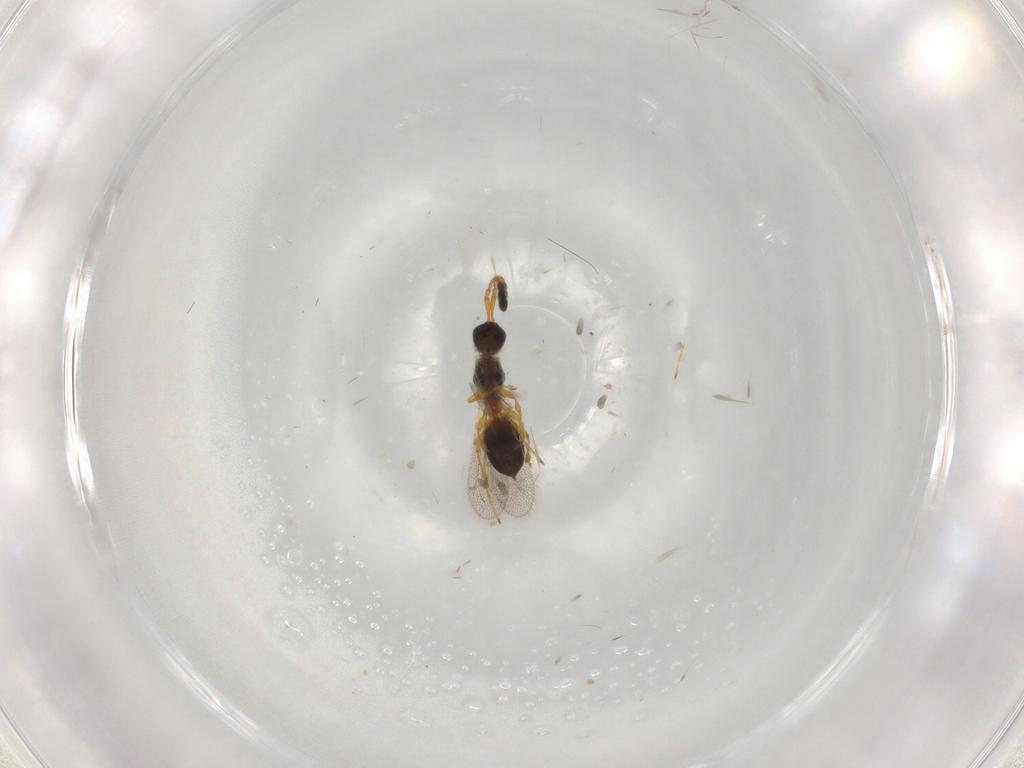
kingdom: Animalia
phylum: Arthropoda
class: Insecta
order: Hymenoptera
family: Diapriidae
